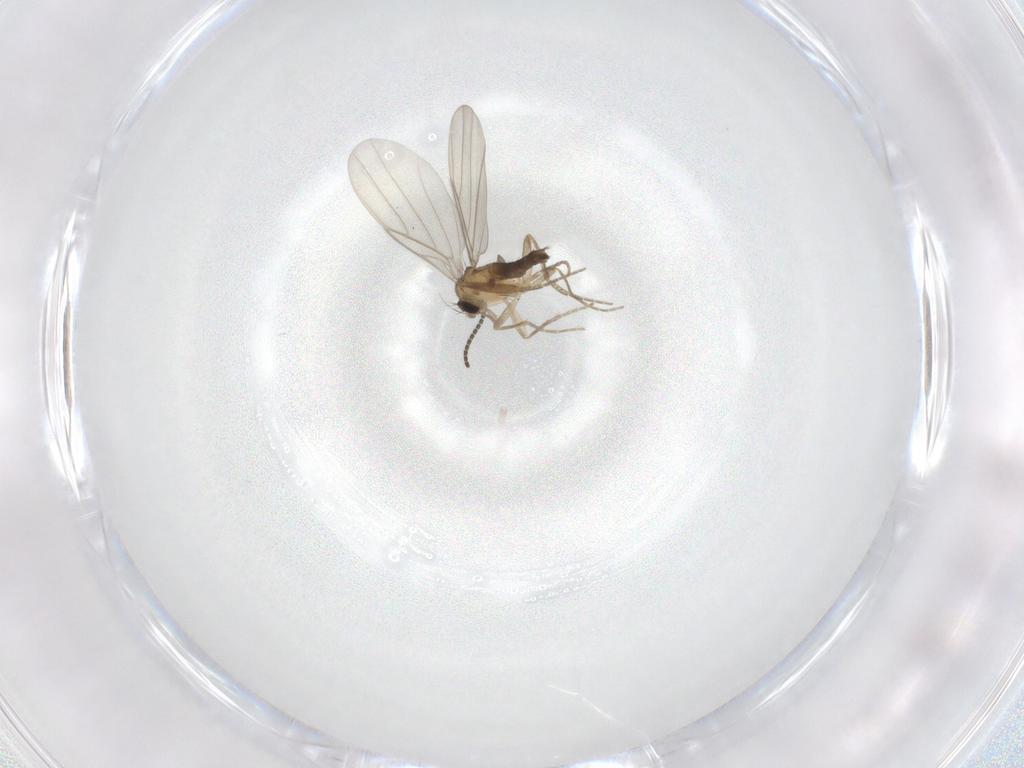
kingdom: Animalia
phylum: Arthropoda
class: Insecta
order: Diptera
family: Sciaridae
